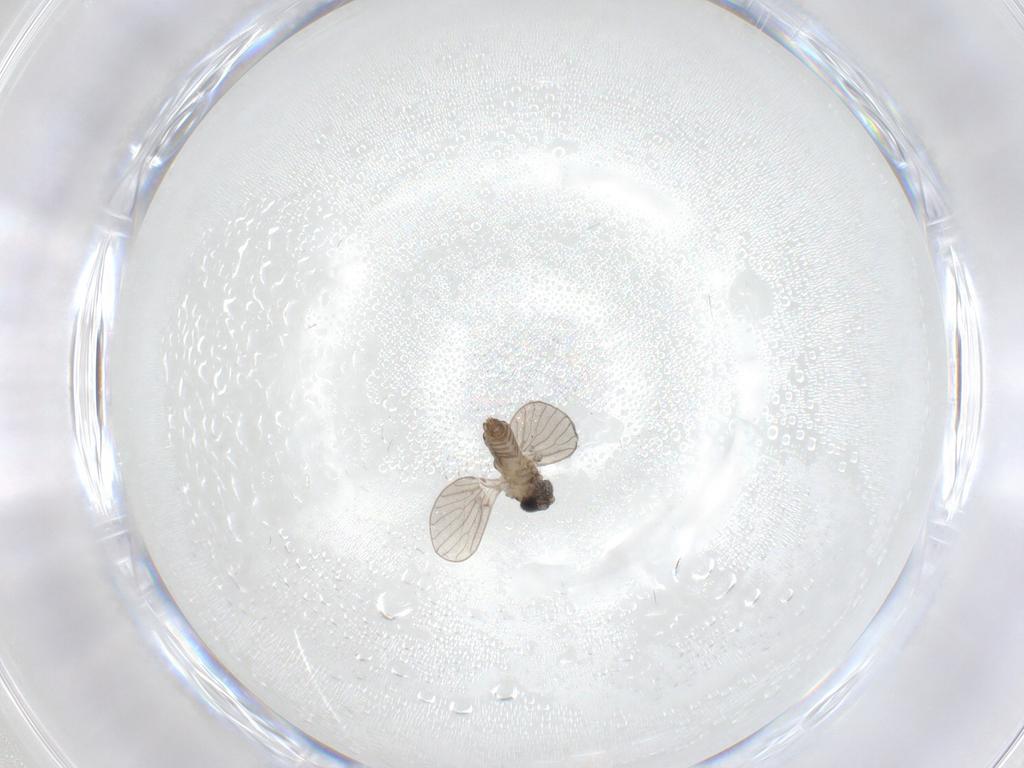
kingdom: Animalia
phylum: Arthropoda
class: Insecta
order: Diptera
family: Psychodidae
